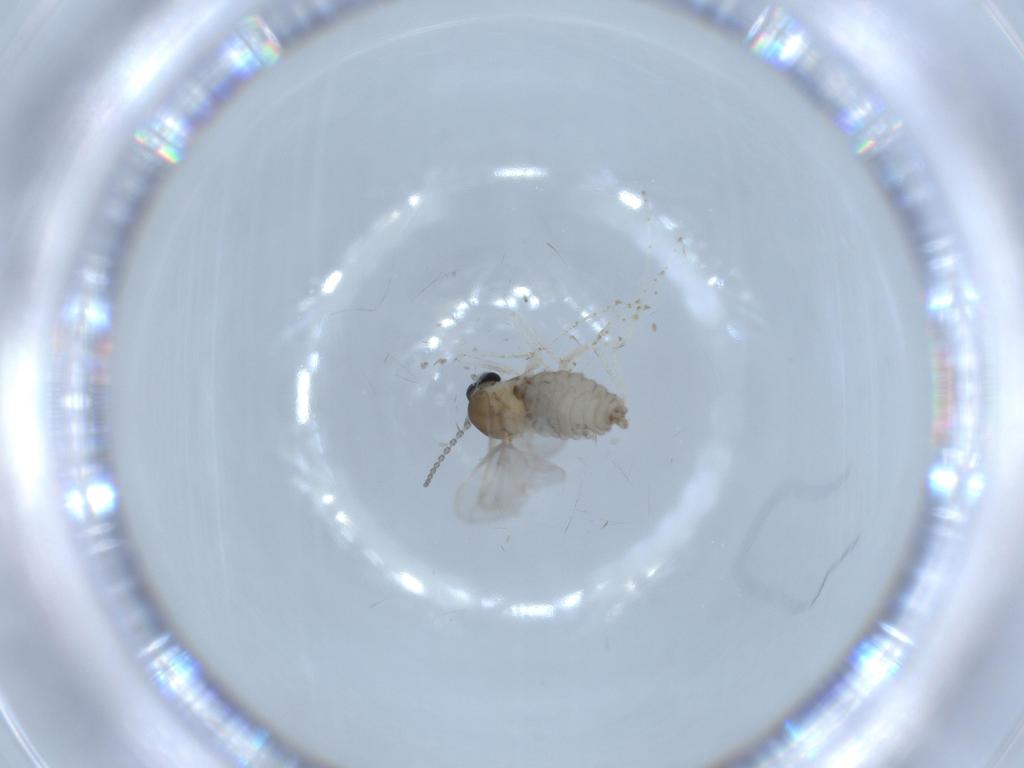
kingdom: Animalia
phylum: Arthropoda
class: Insecta
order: Diptera
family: Cecidomyiidae
